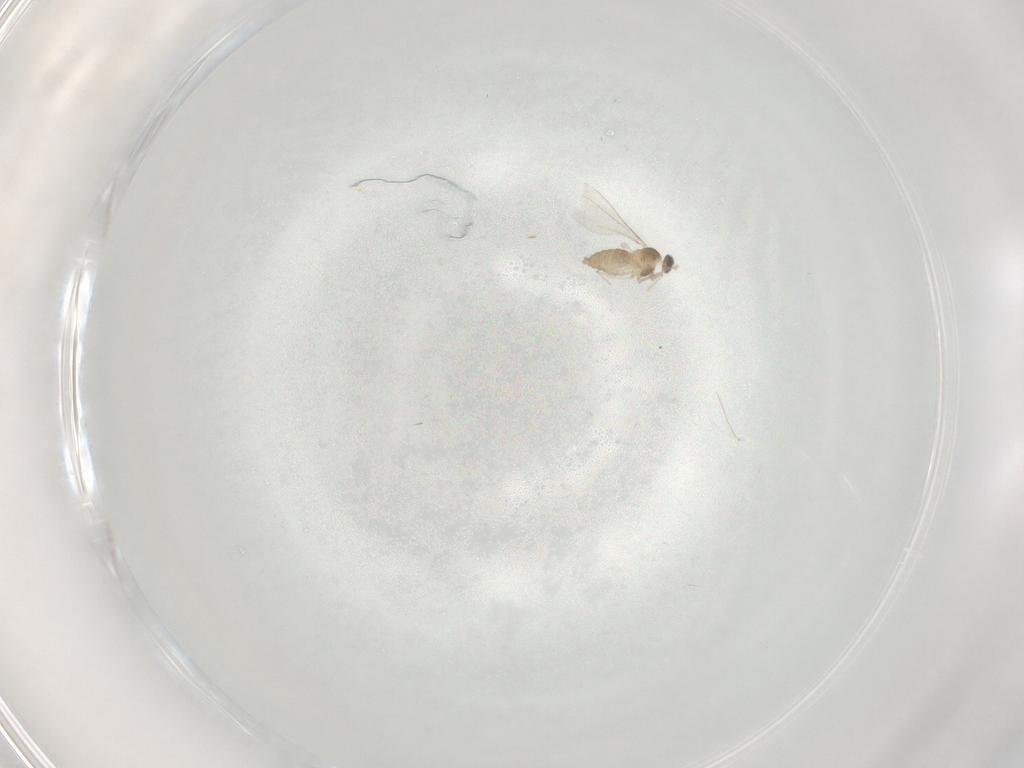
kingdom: Animalia
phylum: Arthropoda
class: Insecta
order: Diptera
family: Cecidomyiidae
